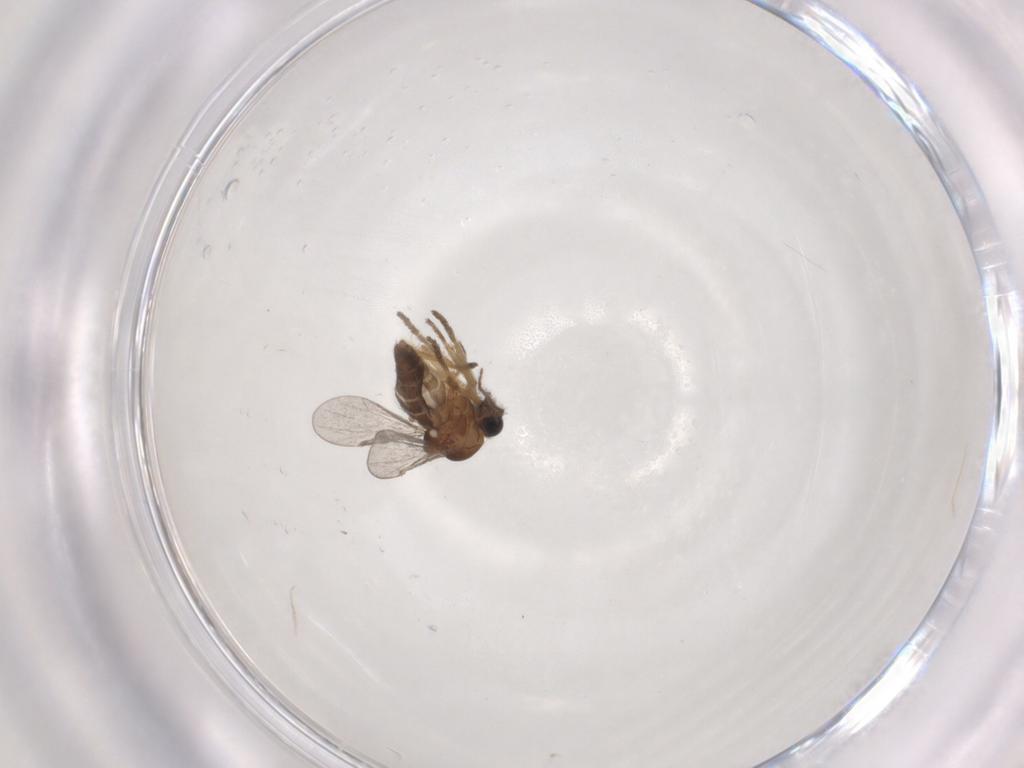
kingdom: Animalia
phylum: Arthropoda
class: Insecta
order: Diptera
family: Ceratopogonidae
